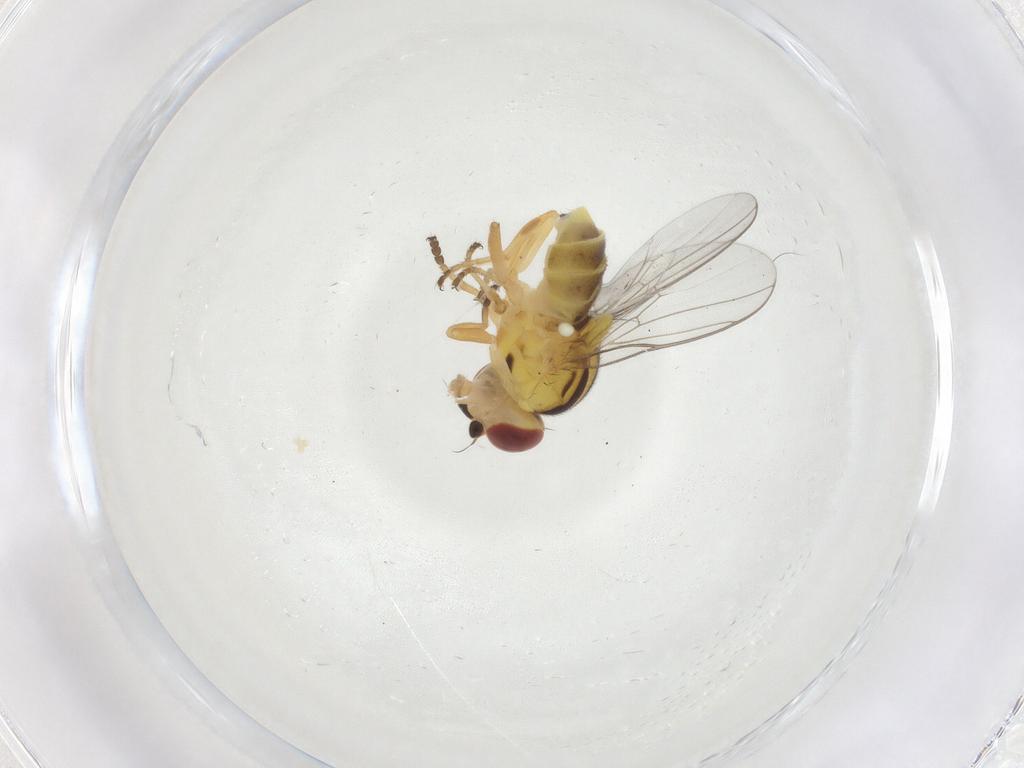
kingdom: Animalia
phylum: Arthropoda
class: Insecta
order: Diptera
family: Chloropidae
